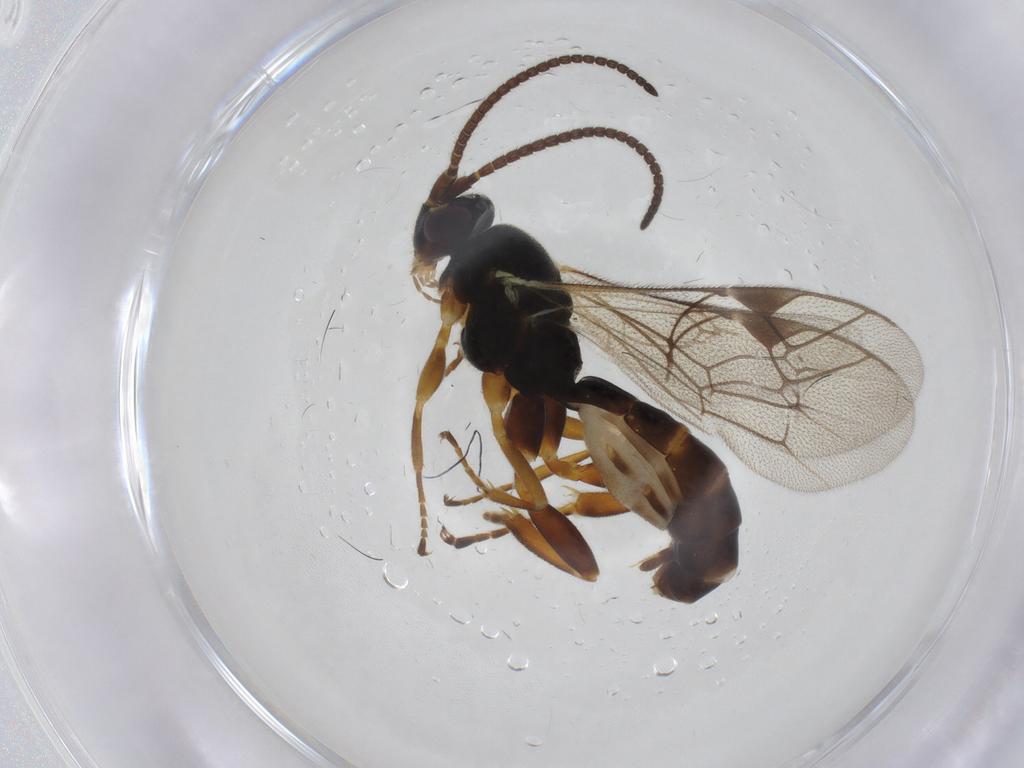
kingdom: Animalia
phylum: Arthropoda
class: Insecta
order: Hymenoptera
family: Ichneumonidae
